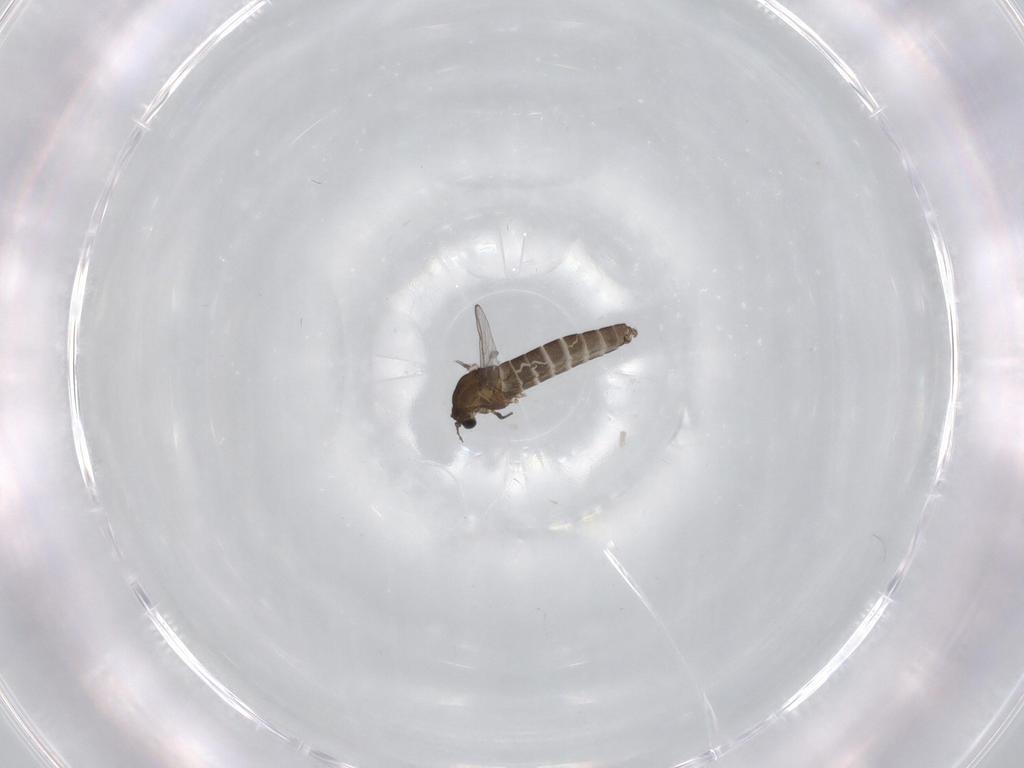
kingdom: Animalia
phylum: Arthropoda
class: Insecta
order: Diptera
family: Chironomidae
